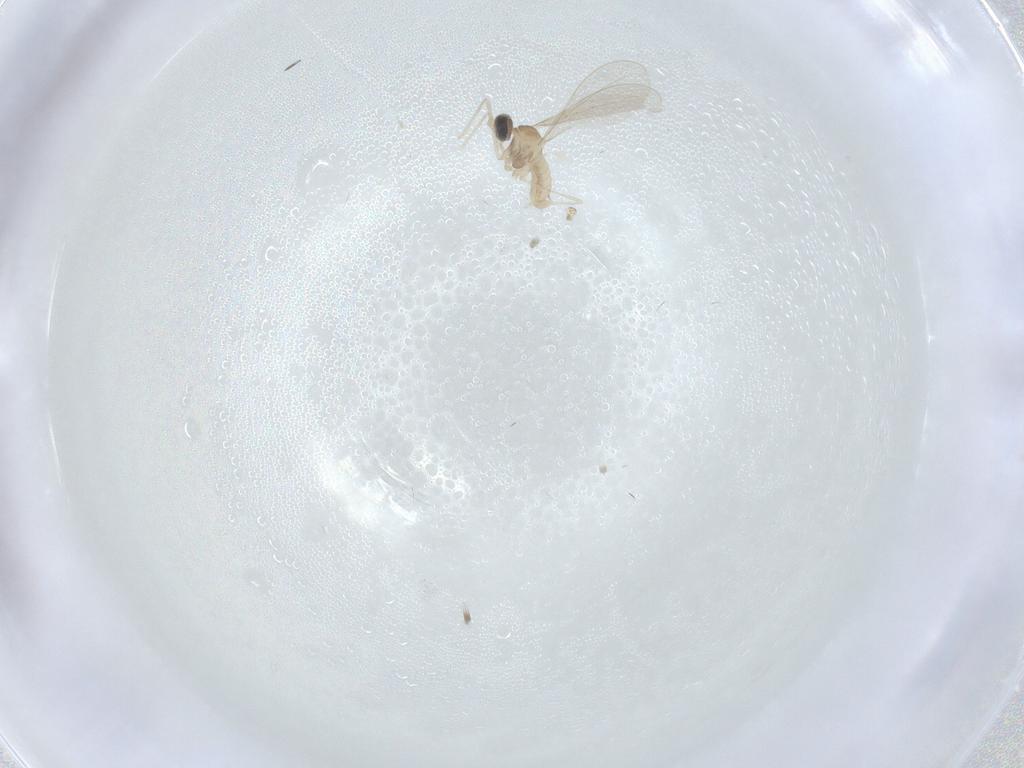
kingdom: Animalia
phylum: Arthropoda
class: Insecta
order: Diptera
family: Cecidomyiidae
